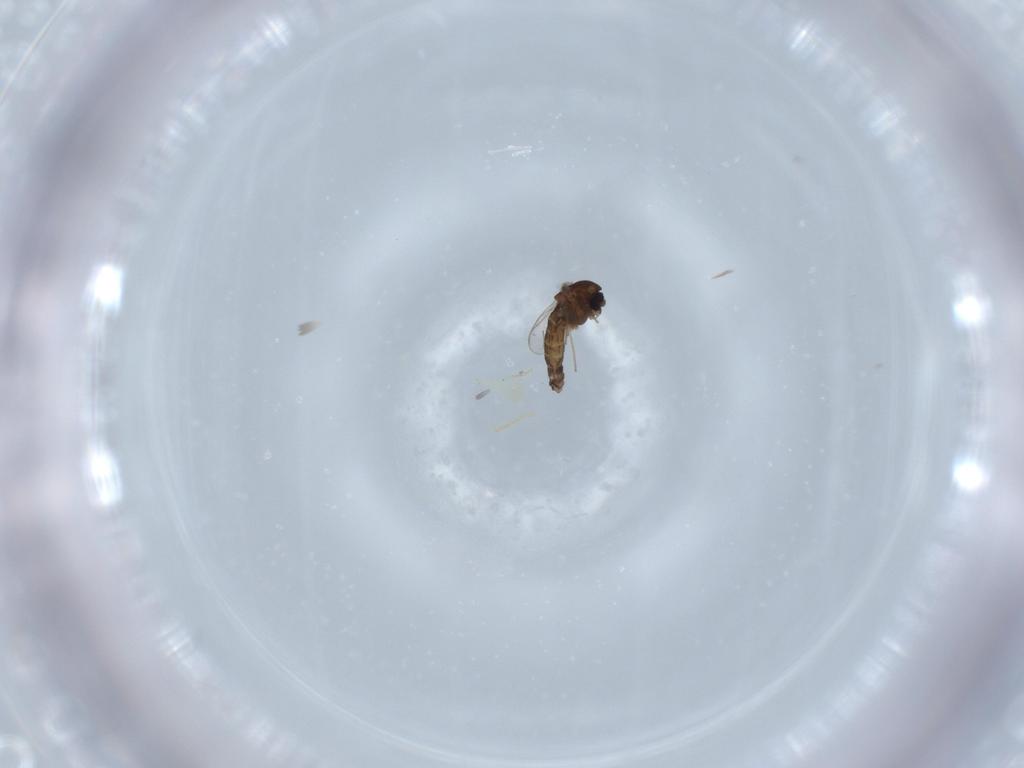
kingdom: Animalia
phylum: Arthropoda
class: Insecta
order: Diptera
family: Chironomidae
